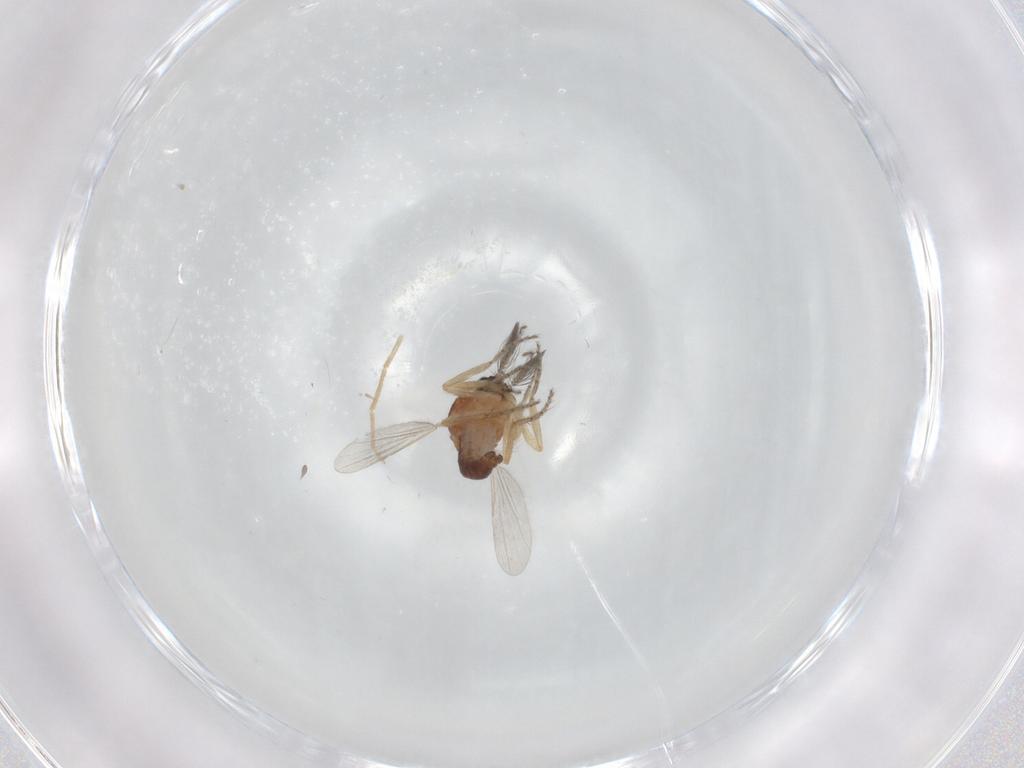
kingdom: Animalia
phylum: Arthropoda
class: Insecta
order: Diptera
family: Ceratopogonidae
